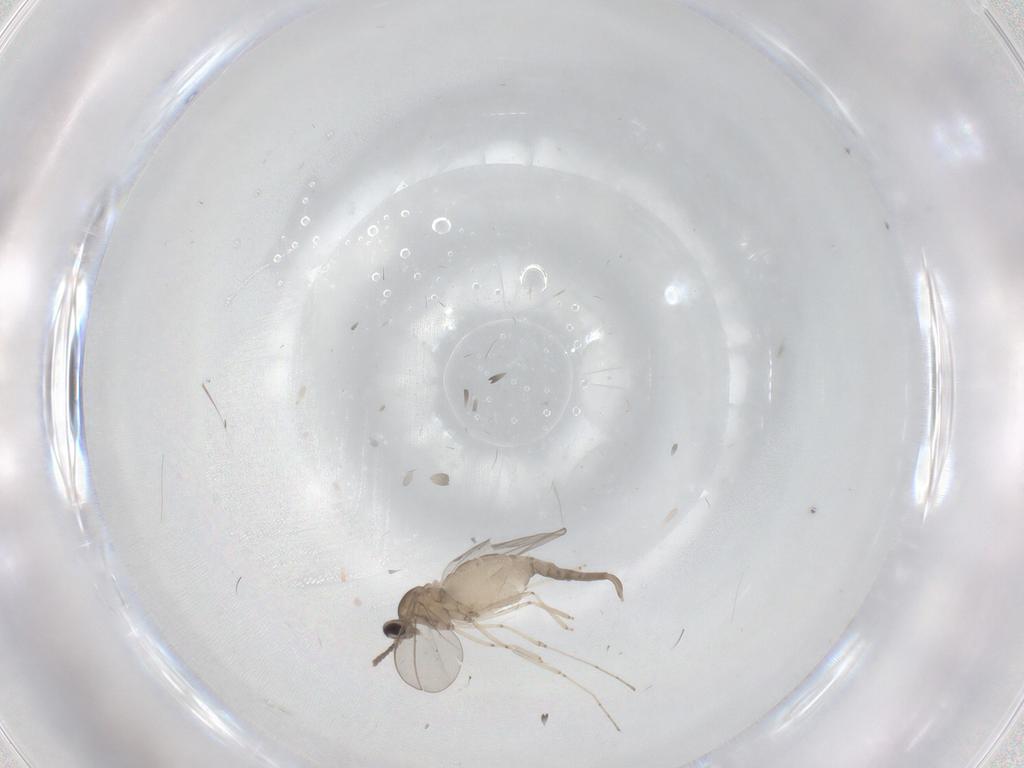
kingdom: Animalia
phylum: Arthropoda
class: Insecta
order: Diptera
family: Cecidomyiidae
